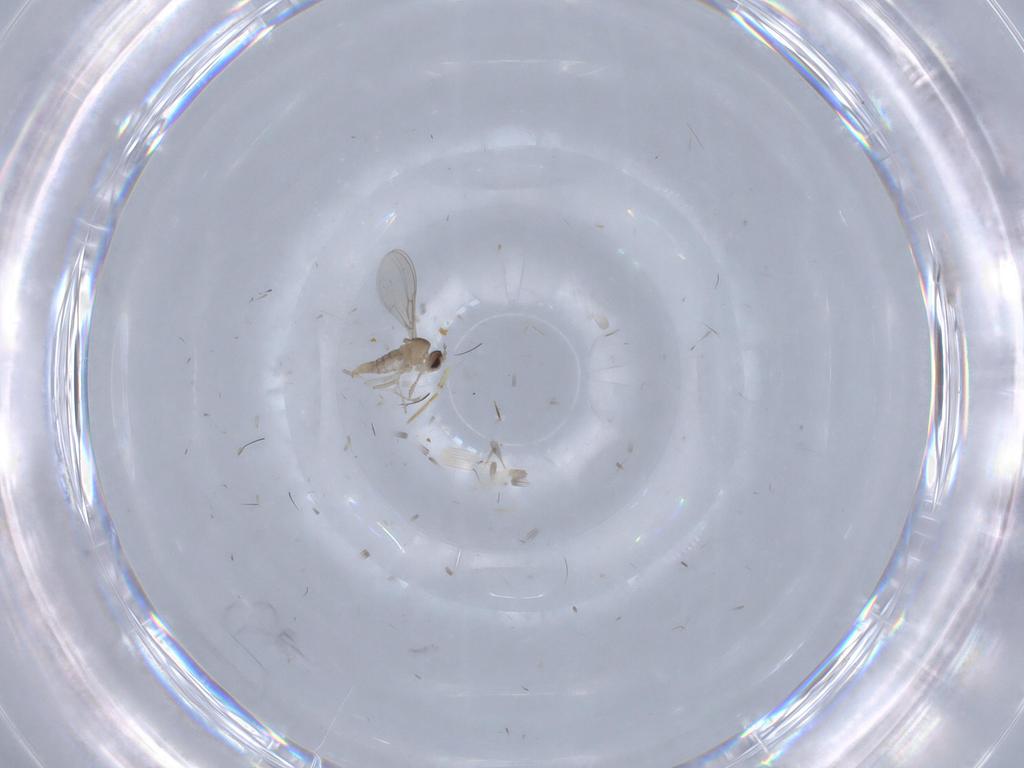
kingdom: Animalia
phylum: Arthropoda
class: Insecta
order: Diptera
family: Cecidomyiidae
